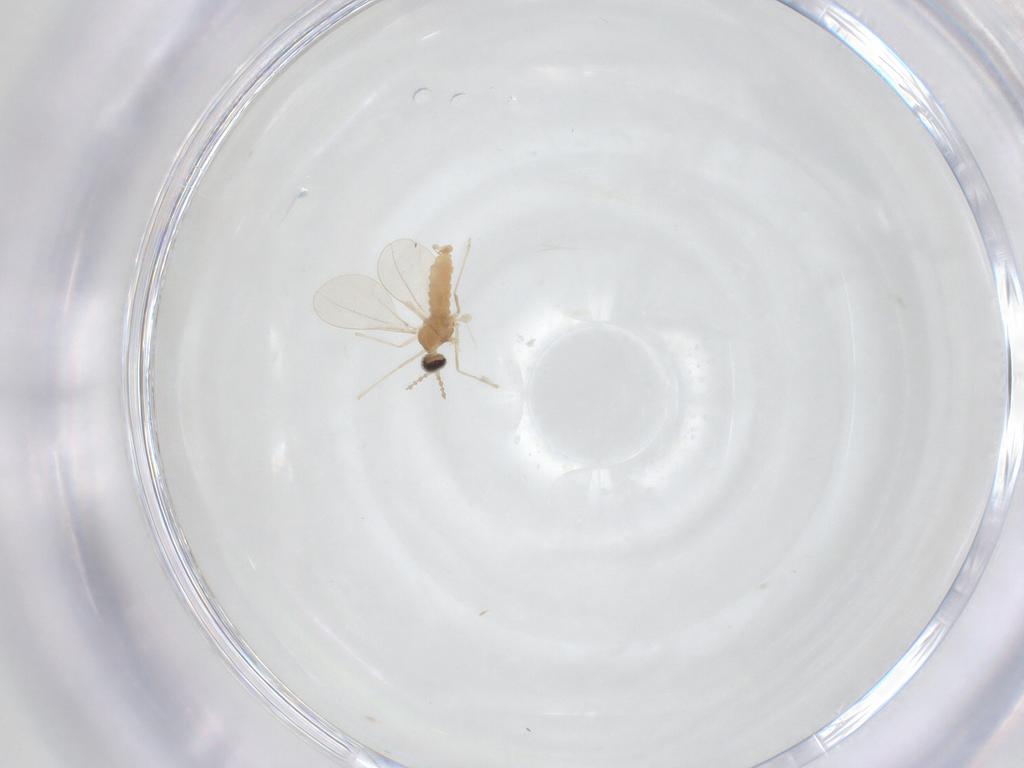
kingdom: Animalia
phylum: Arthropoda
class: Insecta
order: Diptera
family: Cecidomyiidae
